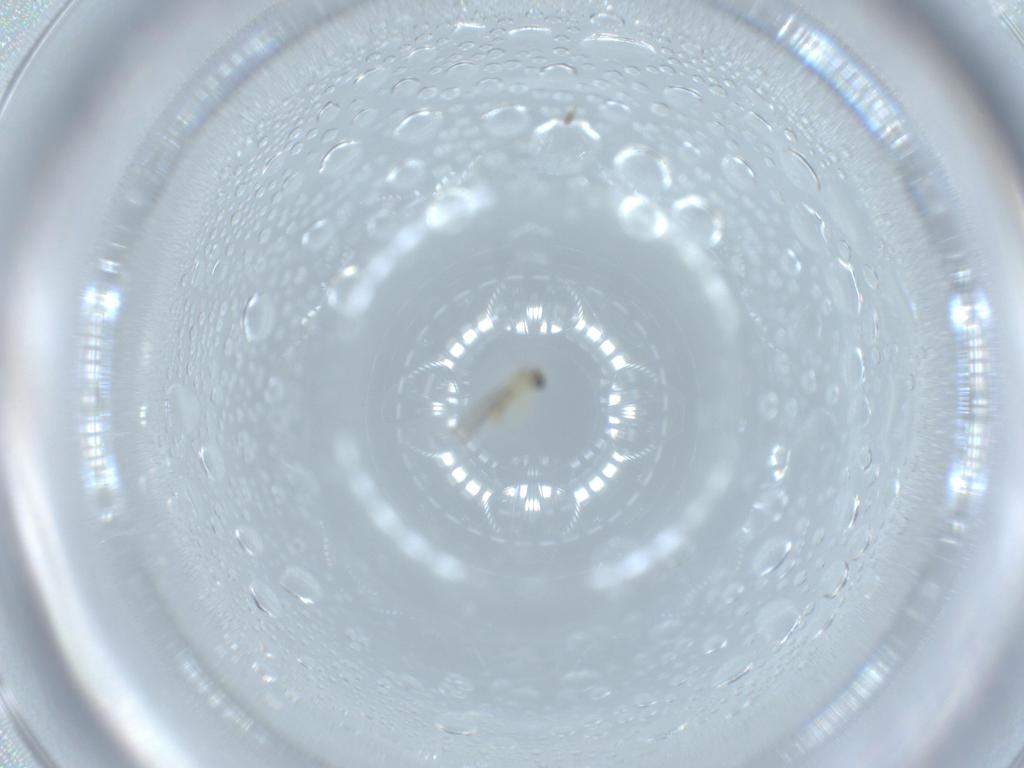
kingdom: Animalia
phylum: Arthropoda
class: Insecta
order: Diptera
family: Cecidomyiidae
